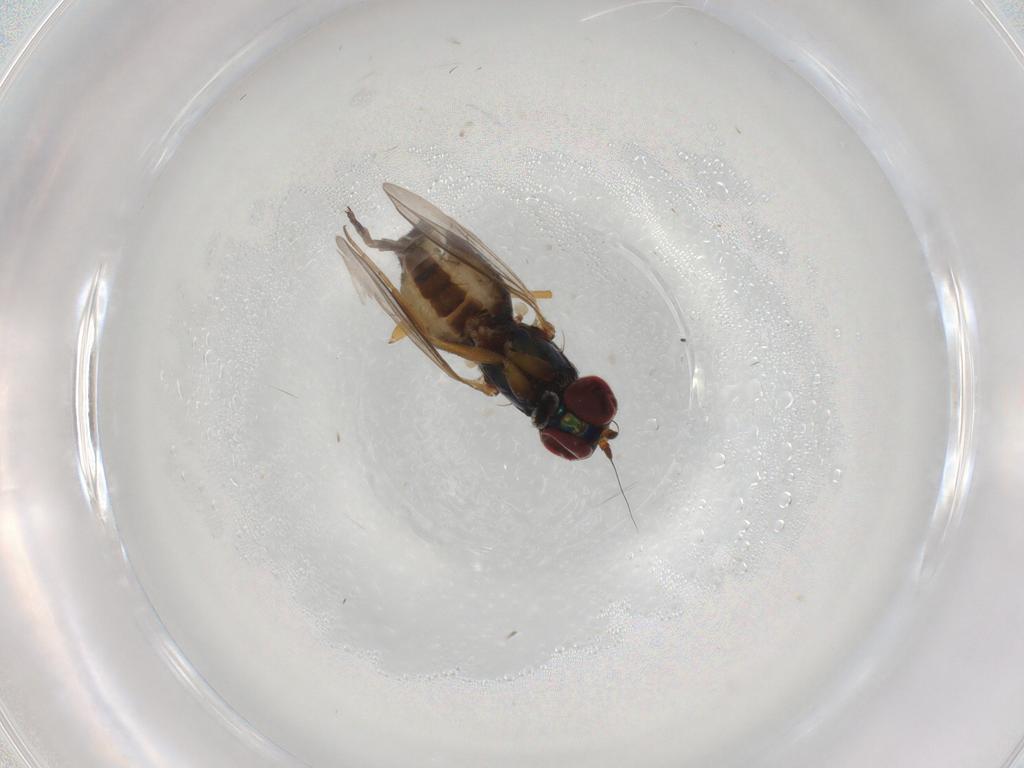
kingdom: Animalia
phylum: Arthropoda
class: Insecta
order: Diptera
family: Dolichopodidae
